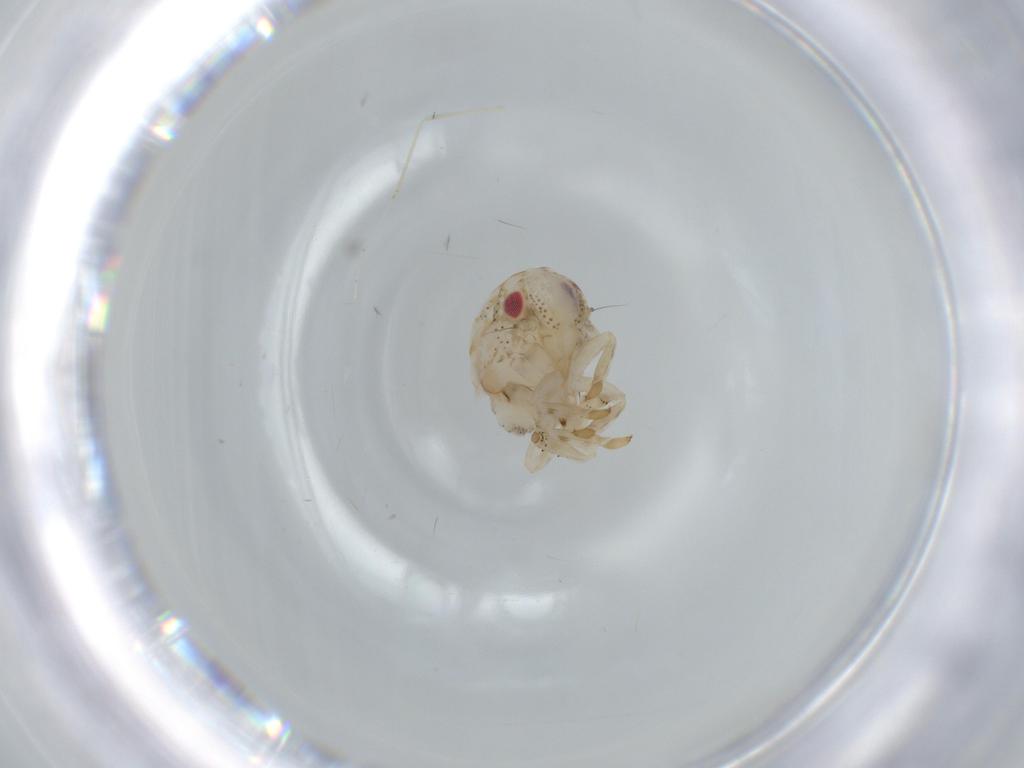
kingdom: Animalia
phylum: Arthropoda
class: Insecta
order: Hemiptera
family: Acanaloniidae
